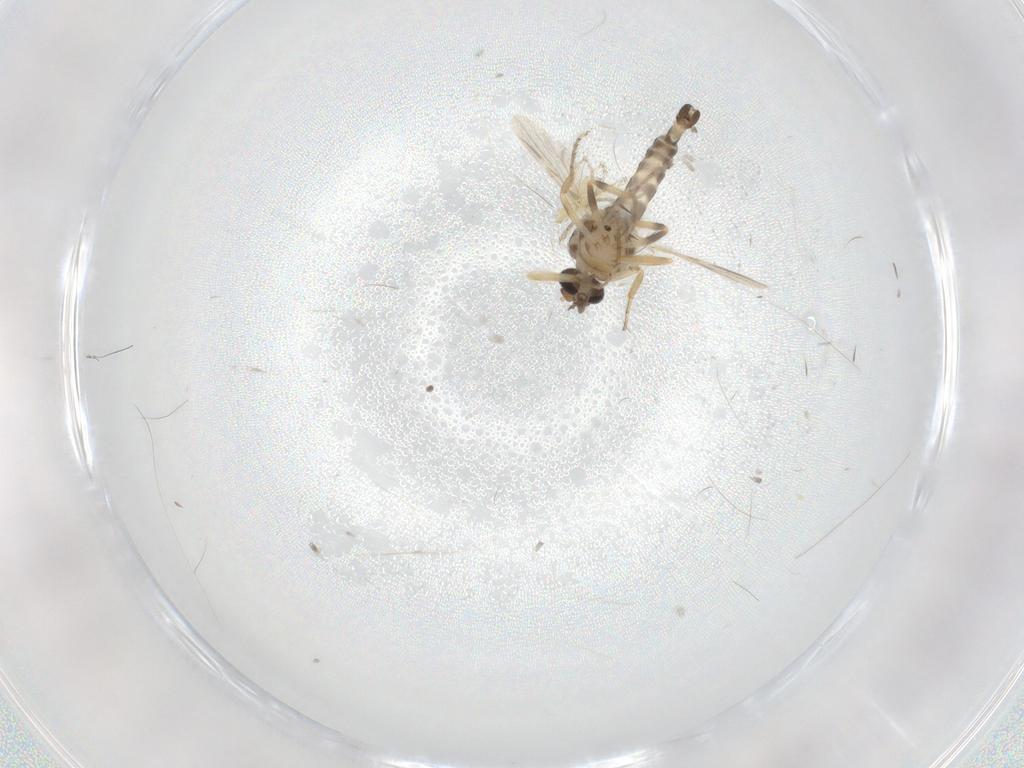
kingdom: Animalia
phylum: Arthropoda
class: Insecta
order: Diptera
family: Ceratopogonidae
